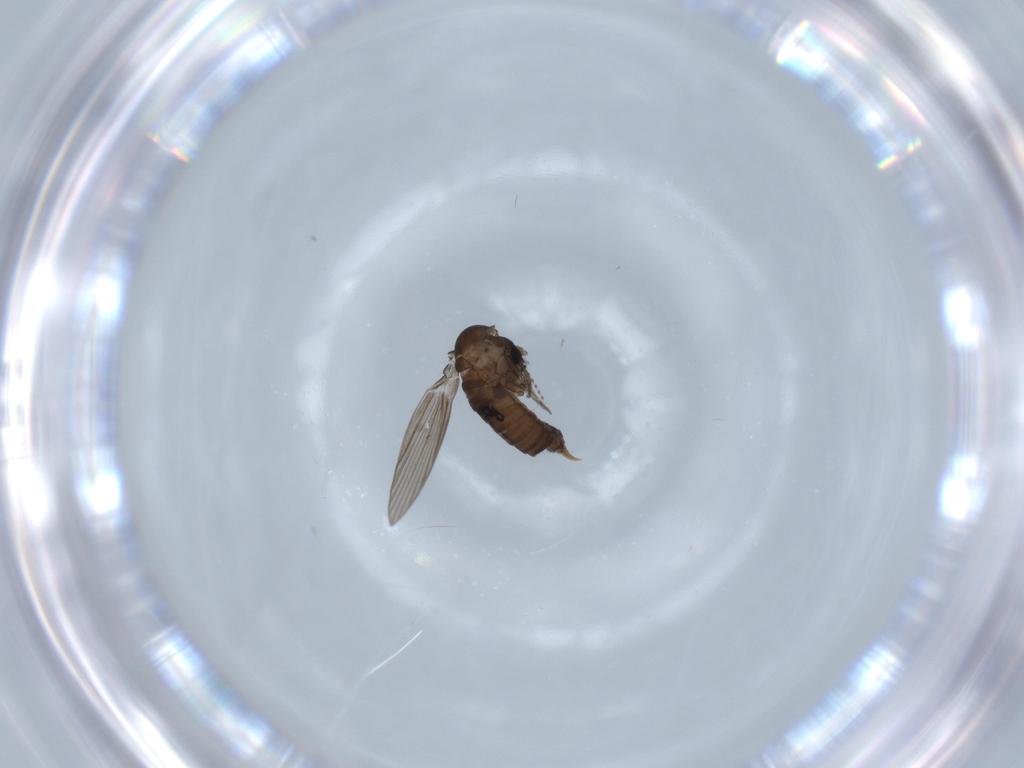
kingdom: Animalia
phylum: Arthropoda
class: Insecta
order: Diptera
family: Psychodidae
